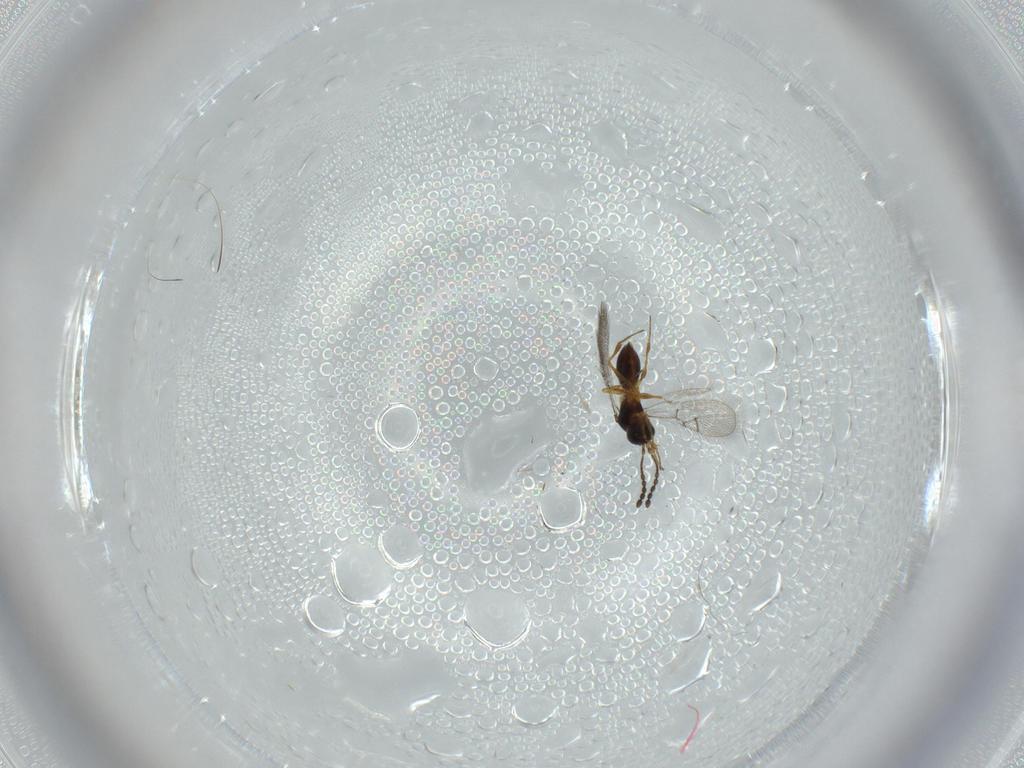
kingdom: Animalia
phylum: Arthropoda
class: Insecta
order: Hymenoptera
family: Figitidae
